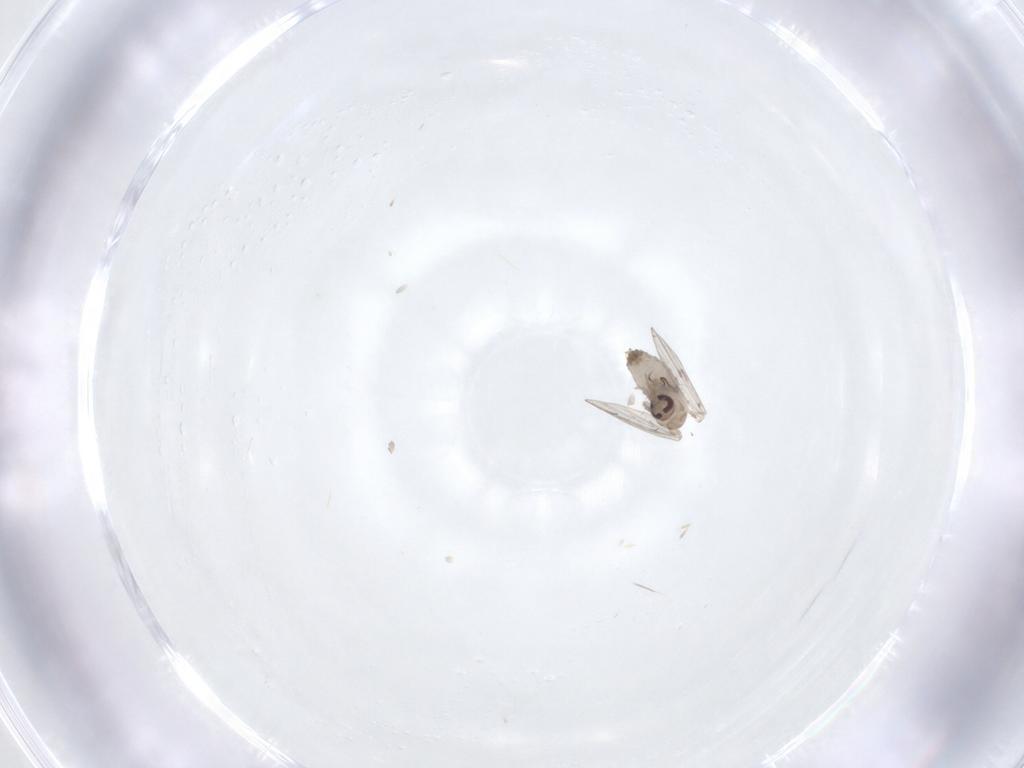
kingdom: Animalia
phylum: Arthropoda
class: Insecta
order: Diptera
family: Psychodidae
